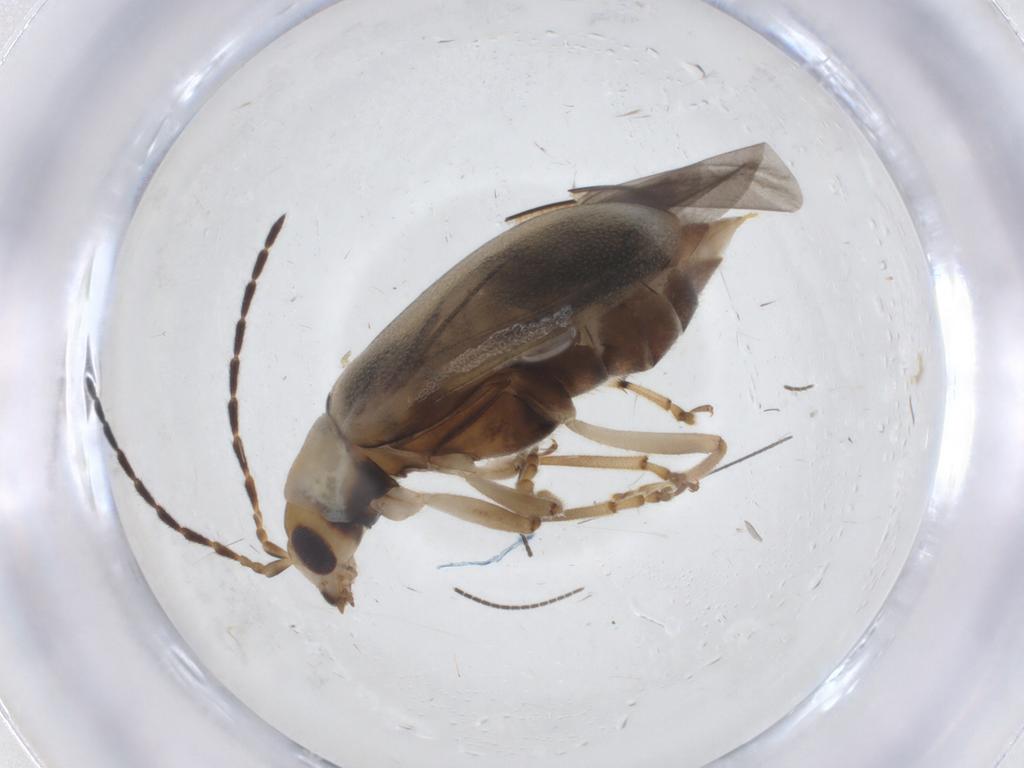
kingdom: Animalia
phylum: Arthropoda
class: Insecta
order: Coleoptera
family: Chrysomelidae
